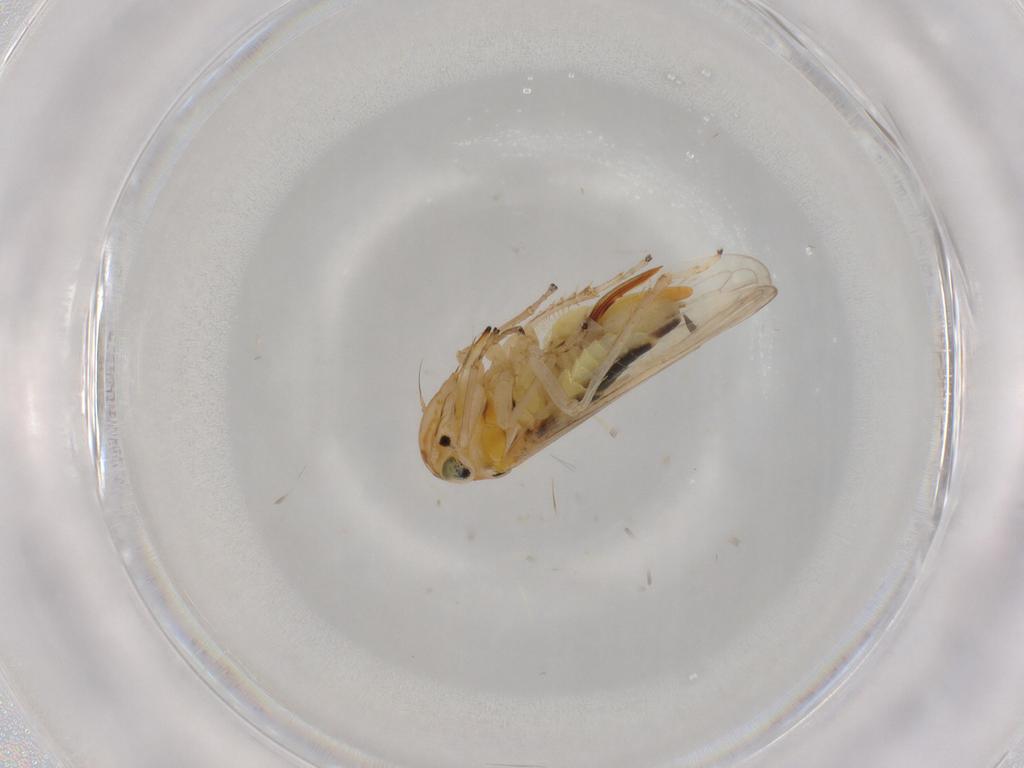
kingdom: Animalia
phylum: Arthropoda
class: Insecta
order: Hemiptera
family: Cicadellidae
